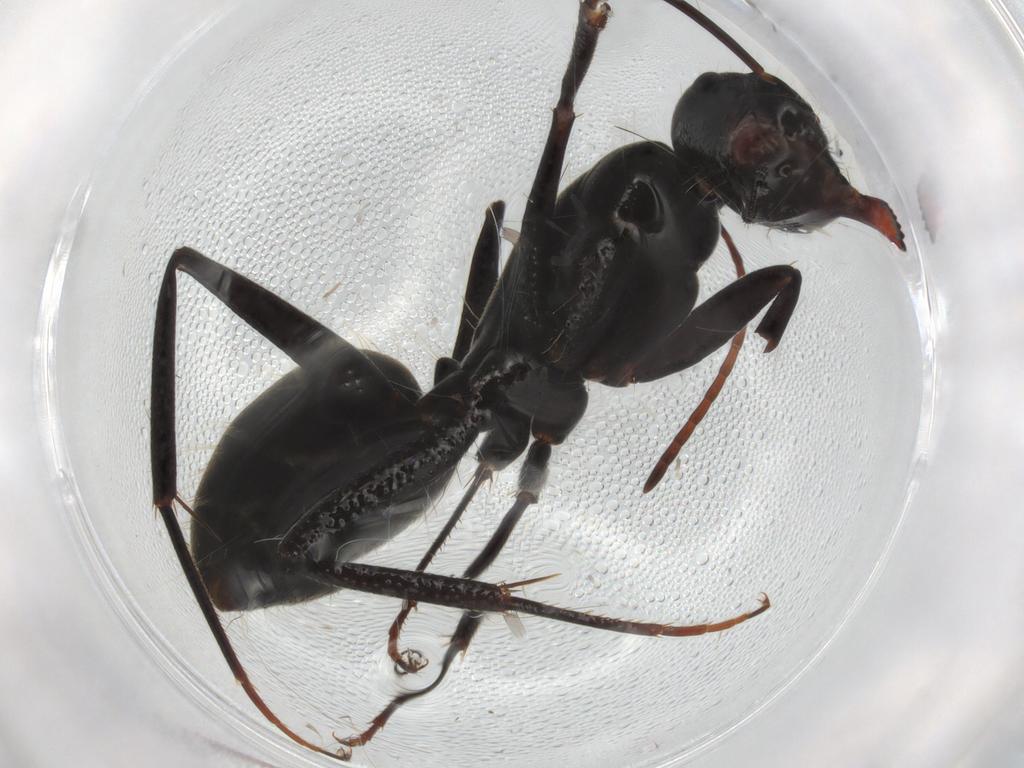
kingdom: Animalia
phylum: Arthropoda
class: Insecta
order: Hymenoptera
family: Formicidae
